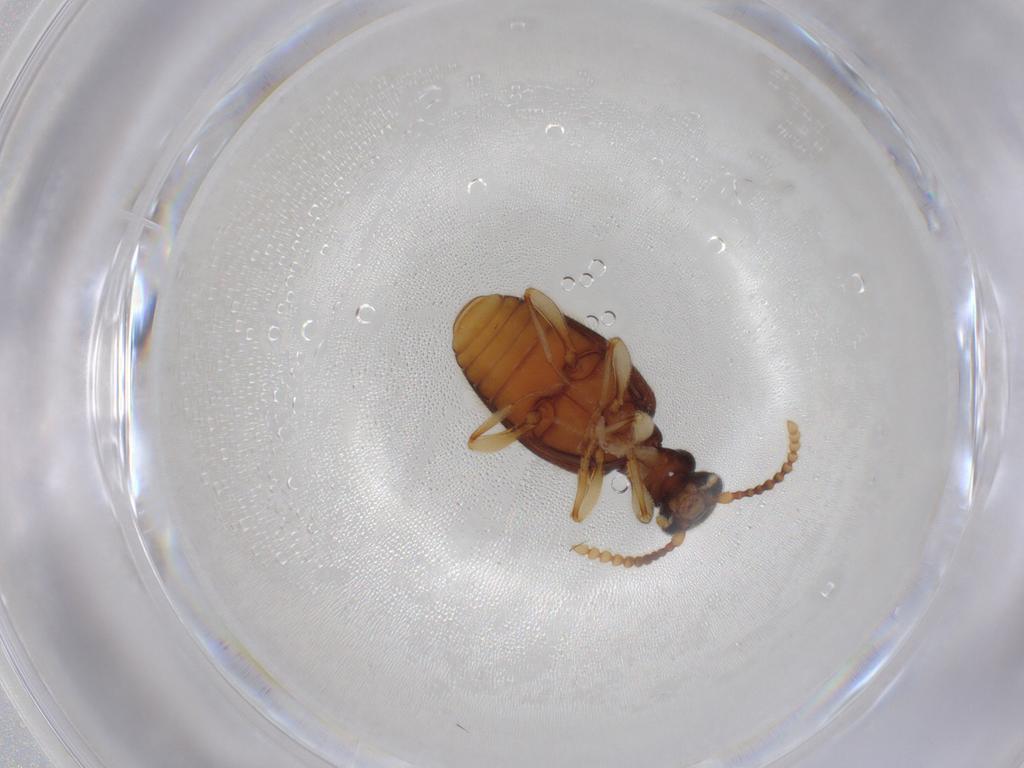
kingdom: Animalia
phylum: Arthropoda
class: Insecta
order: Coleoptera
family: Anthicidae
